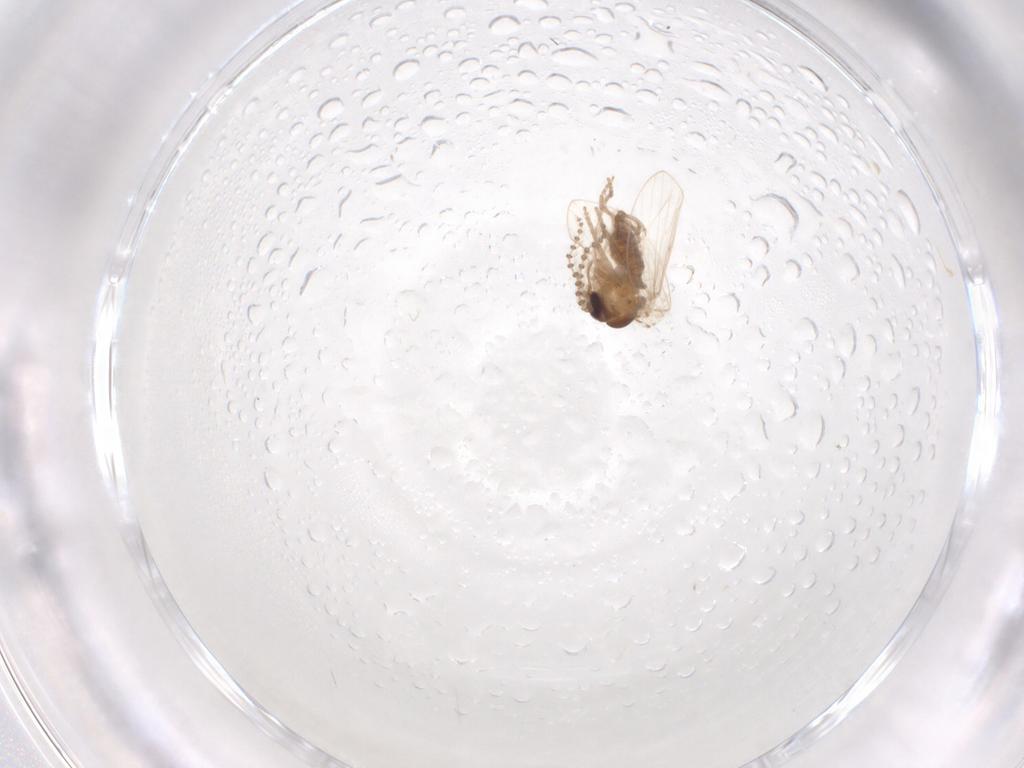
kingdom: Animalia
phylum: Arthropoda
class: Insecta
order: Diptera
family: Psychodidae
